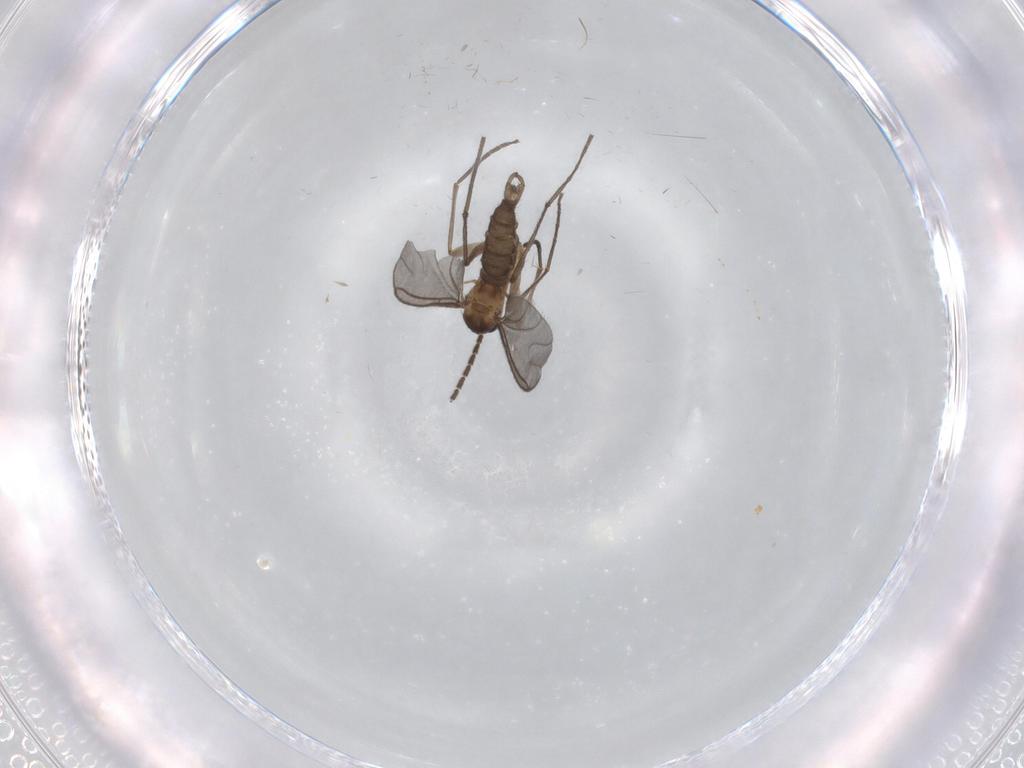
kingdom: Animalia
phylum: Arthropoda
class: Insecta
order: Diptera
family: Sciaridae
